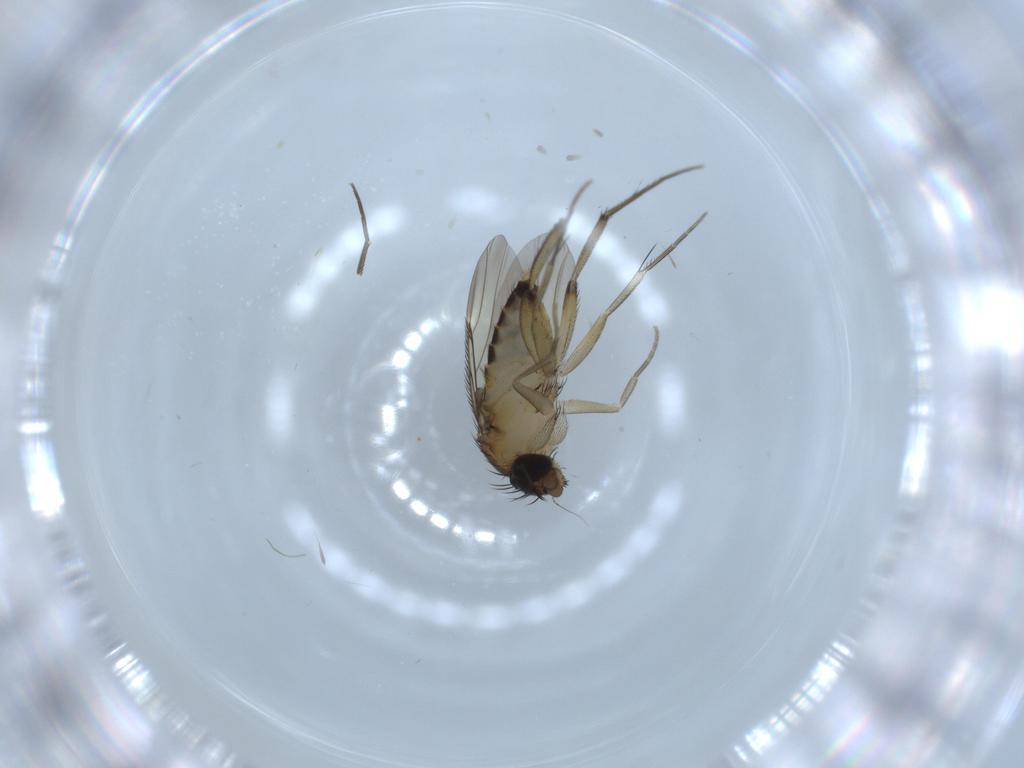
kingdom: Animalia
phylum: Arthropoda
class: Insecta
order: Diptera
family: Phoridae
